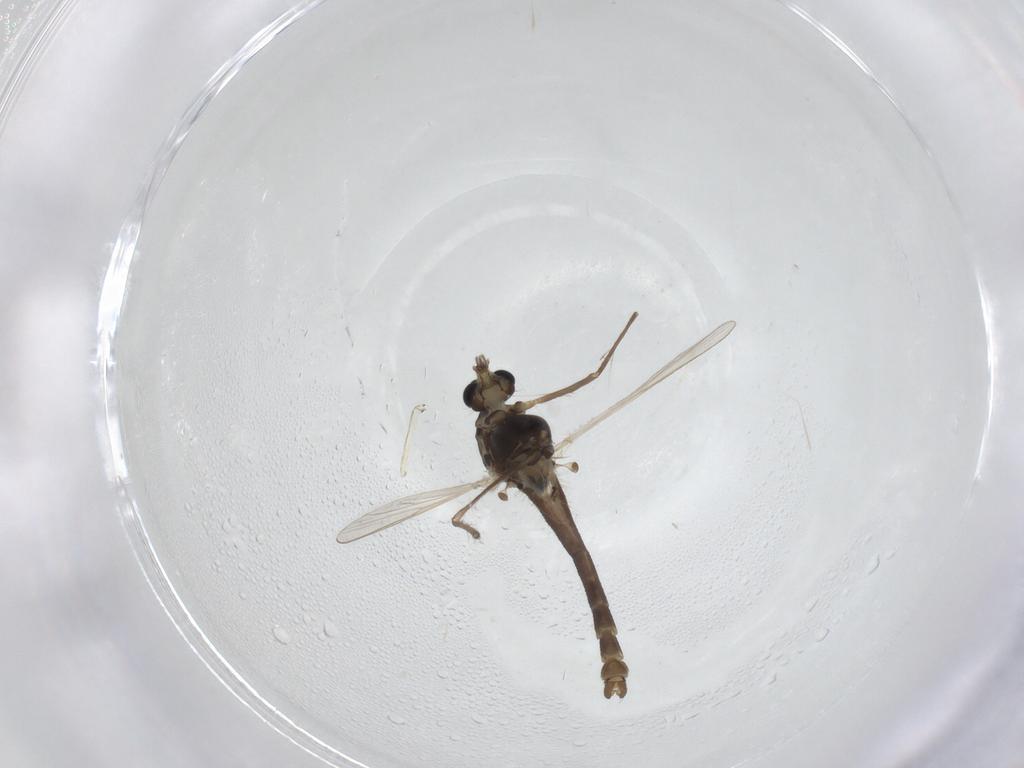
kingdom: Animalia
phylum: Arthropoda
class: Insecta
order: Diptera
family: Chironomidae
